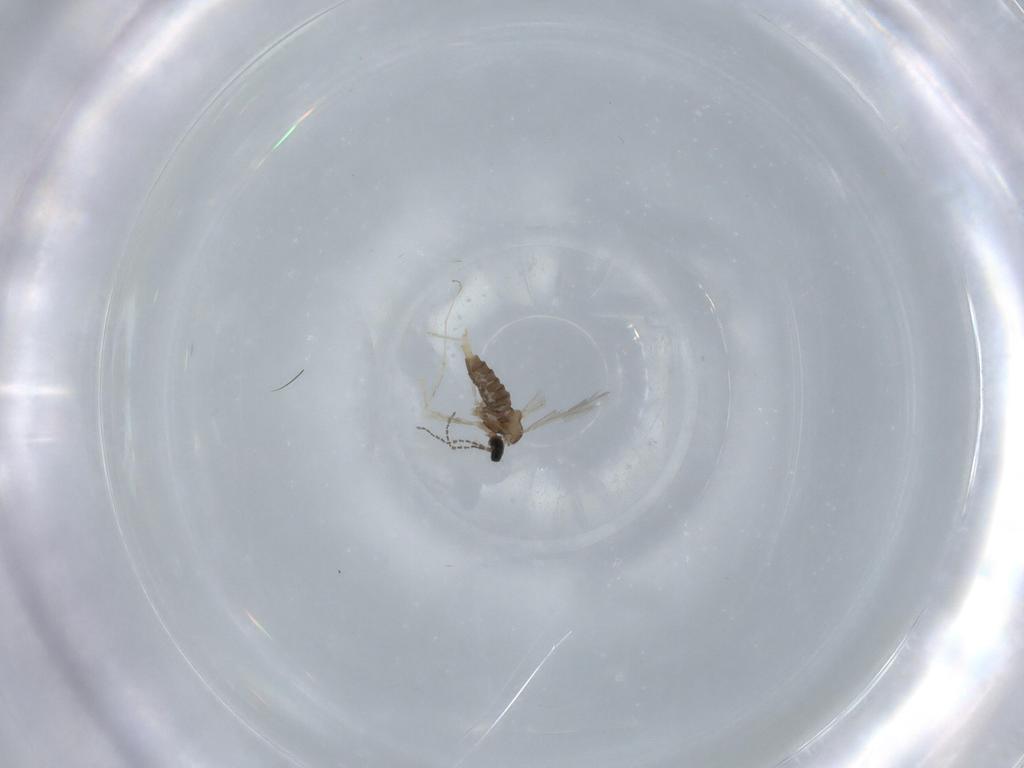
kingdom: Animalia
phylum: Arthropoda
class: Insecta
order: Diptera
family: Cecidomyiidae
